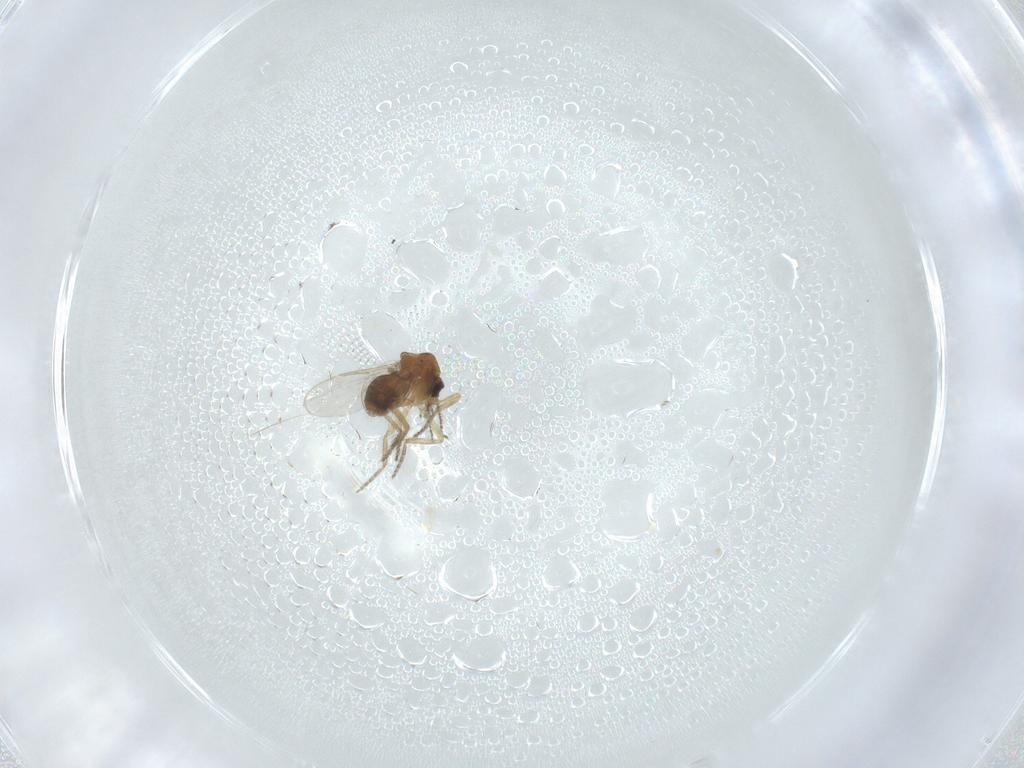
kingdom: Animalia
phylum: Arthropoda
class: Insecta
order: Diptera
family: Ceratopogonidae
